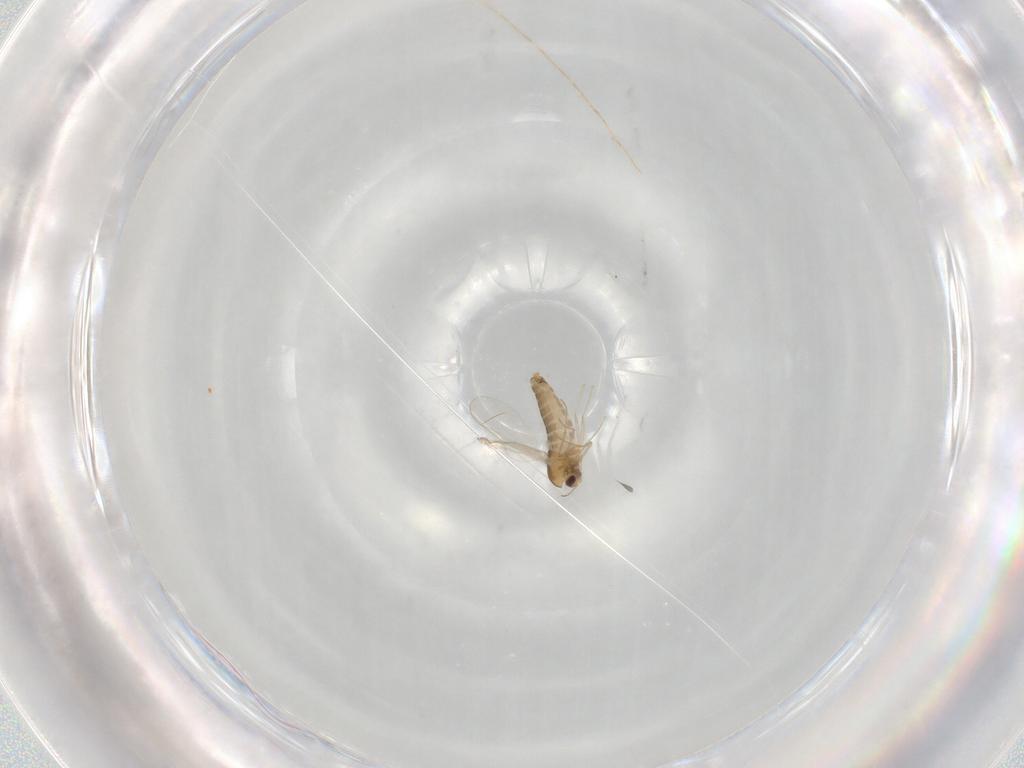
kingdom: Animalia
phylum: Arthropoda
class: Insecta
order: Diptera
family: Chironomidae
